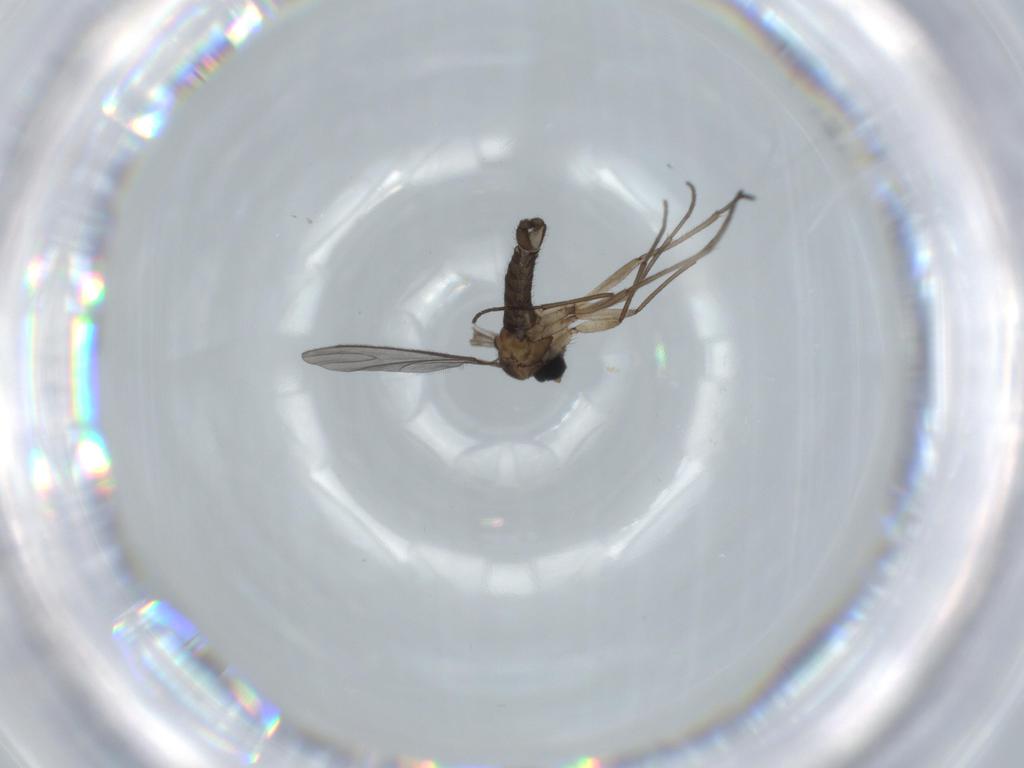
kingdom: Animalia
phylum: Arthropoda
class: Insecta
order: Diptera
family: Sciaridae
